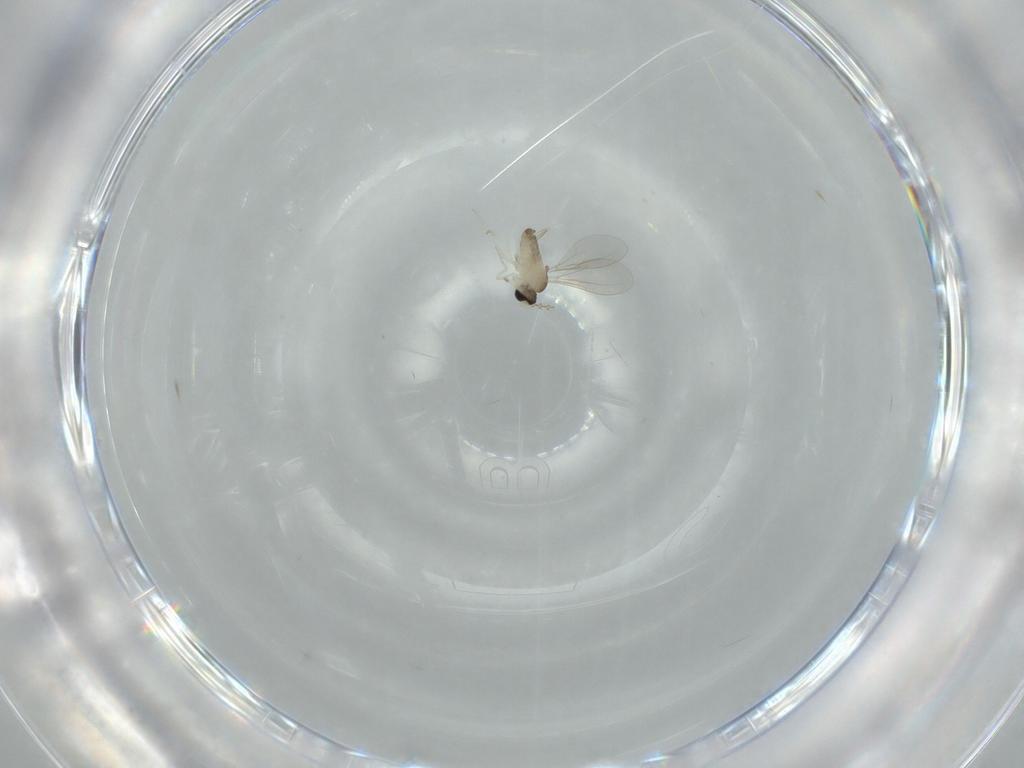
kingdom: Animalia
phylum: Arthropoda
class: Insecta
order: Diptera
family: Cecidomyiidae
